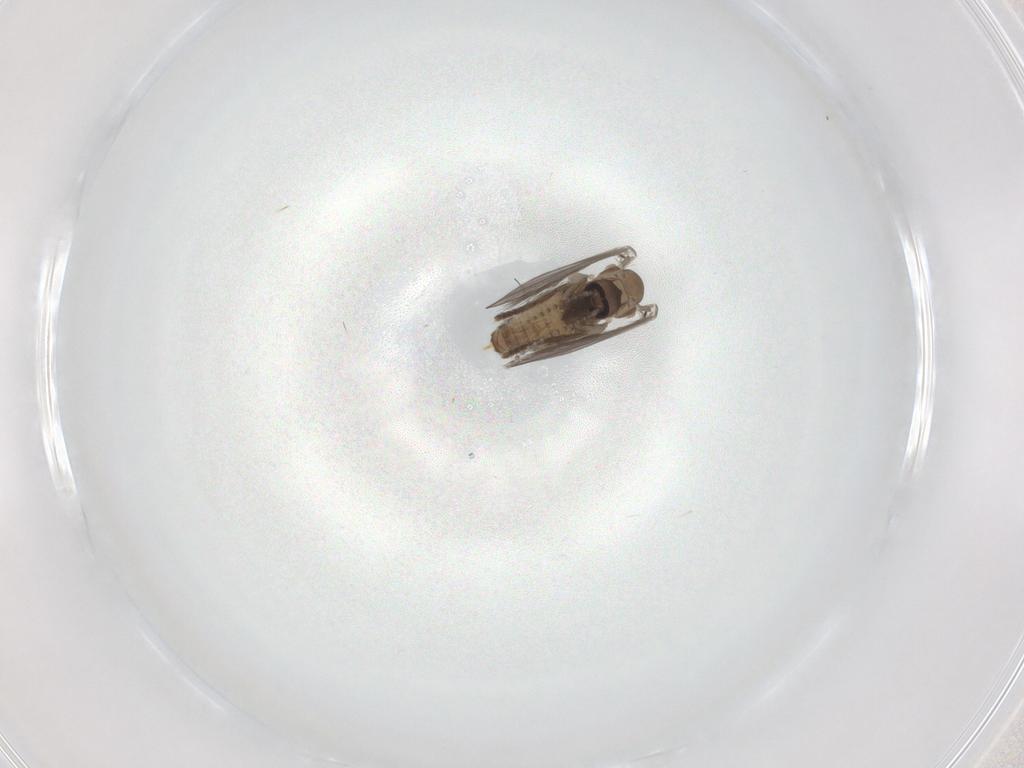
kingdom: Animalia
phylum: Arthropoda
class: Insecta
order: Diptera
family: Psychodidae
